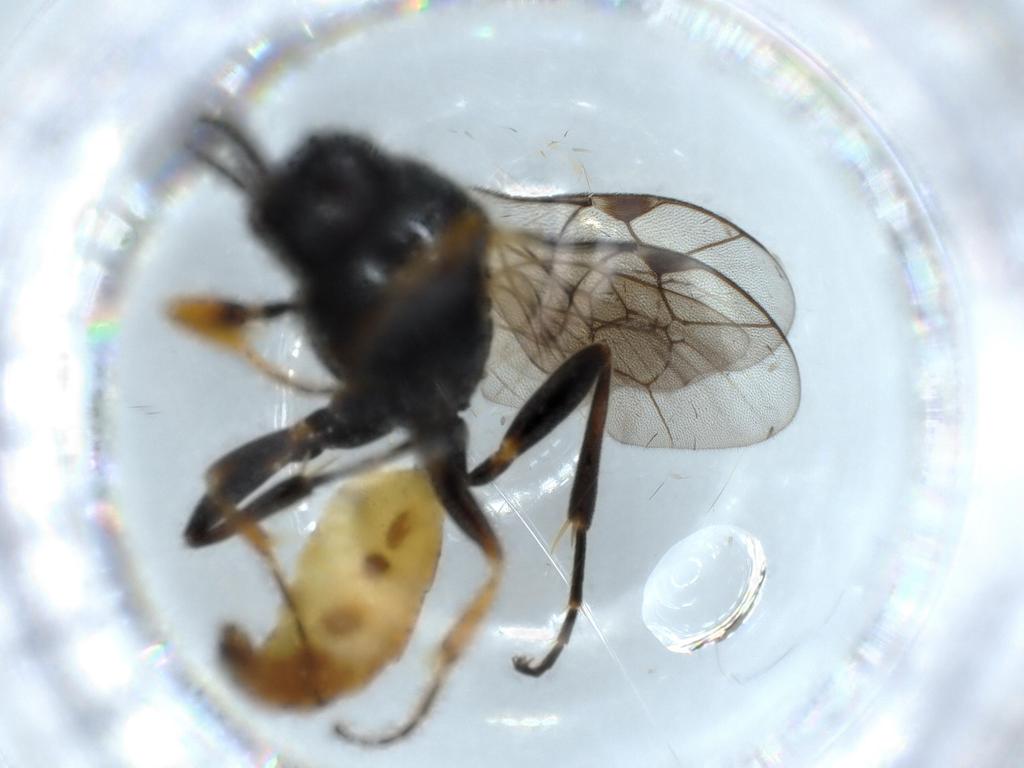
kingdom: Animalia
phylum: Arthropoda
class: Insecta
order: Hymenoptera
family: Ichneumonidae
